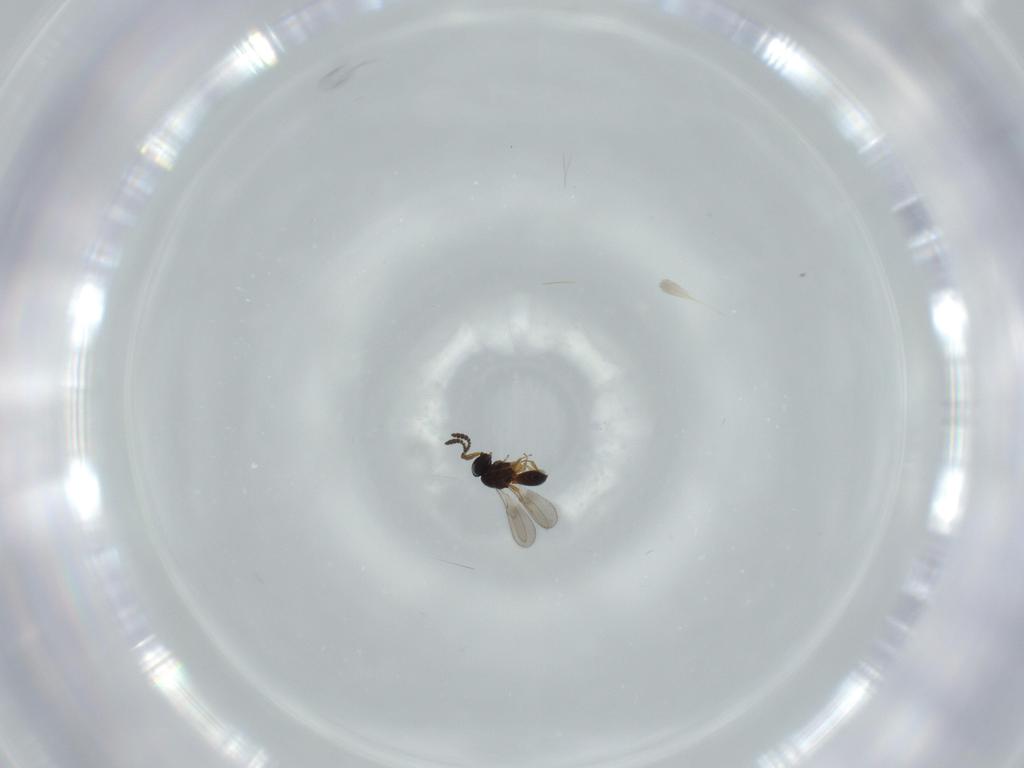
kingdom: Animalia
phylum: Arthropoda
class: Insecta
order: Hymenoptera
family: Scelionidae
